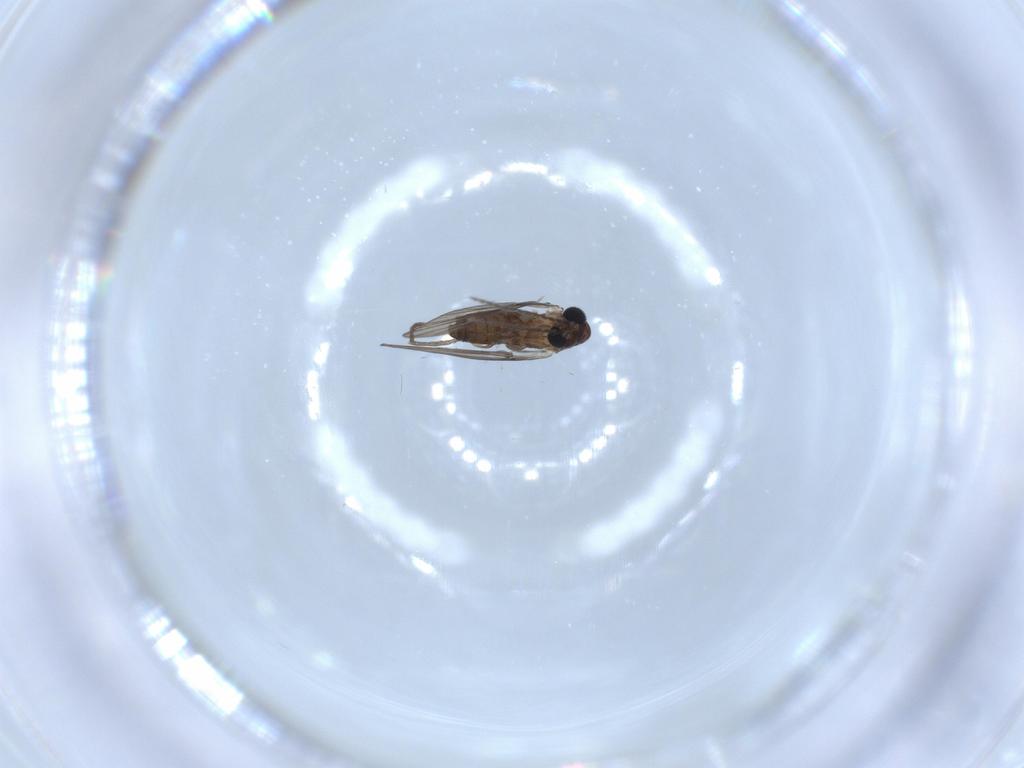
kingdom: Animalia
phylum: Arthropoda
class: Insecta
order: Diptera
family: Psychodidae
